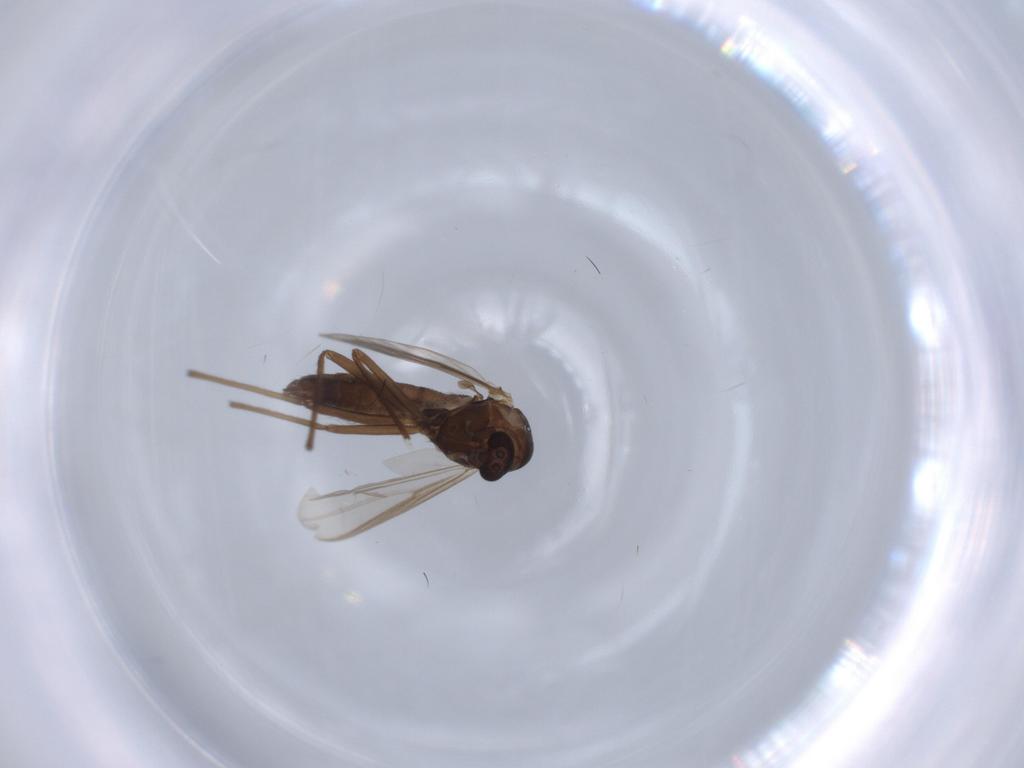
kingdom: Animalia
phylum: Arthropoda
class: Insecta
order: Diptera
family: Chironomidae
